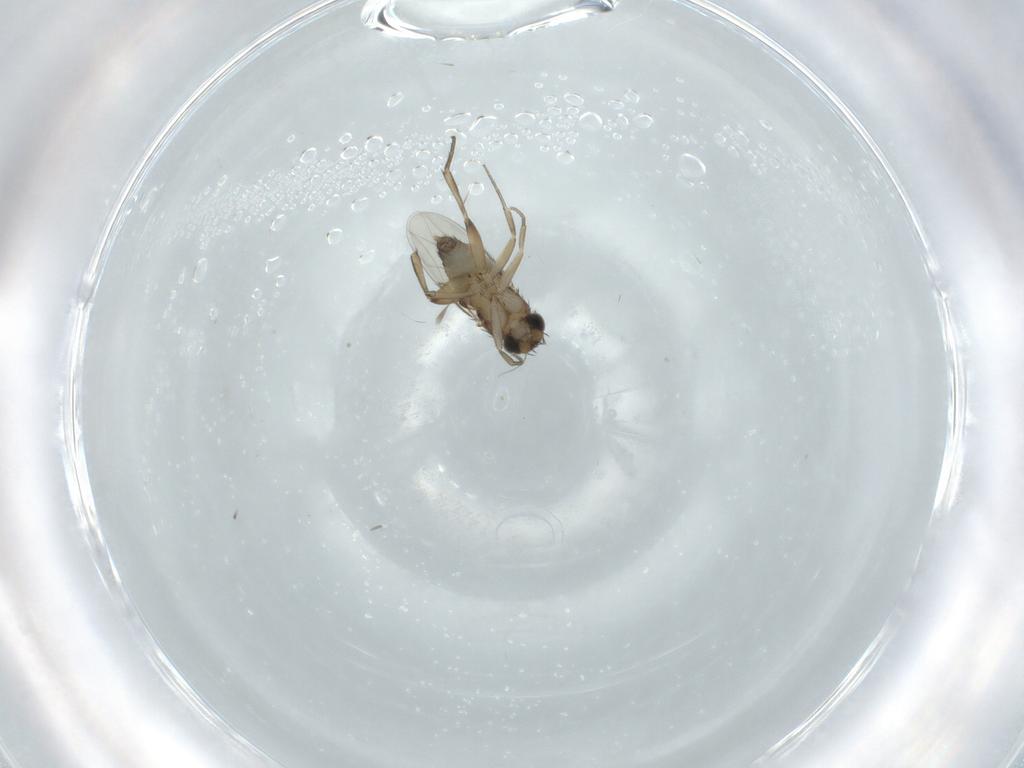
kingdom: Animalia
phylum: Arthropoda
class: Insecta
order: Diptera
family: Phoridae
